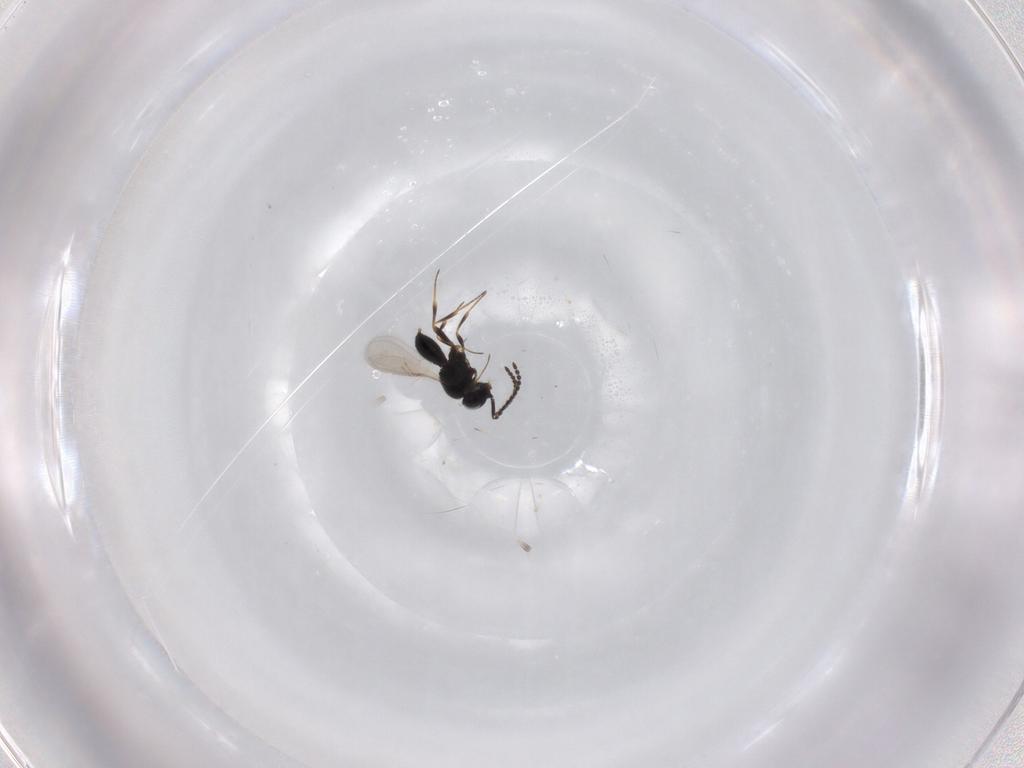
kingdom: Animalia
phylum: Arthropoda
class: Insecta
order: Hymenoptera
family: Scelionidae
